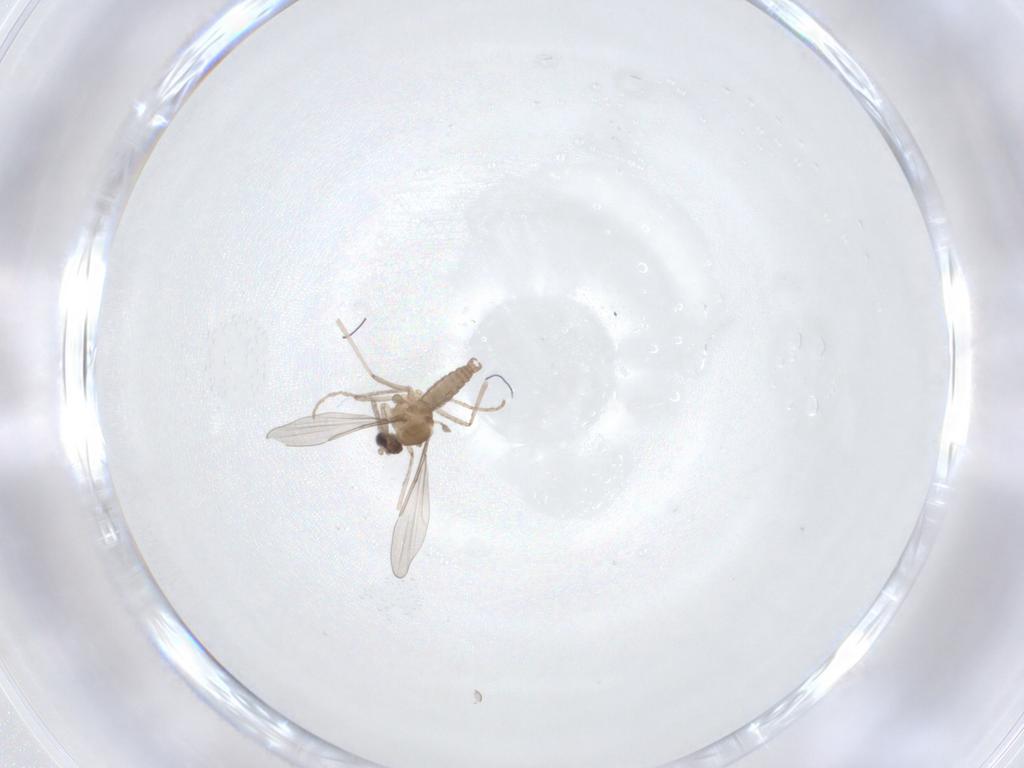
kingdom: Animalia
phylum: Arthropoda
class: Insecta
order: Diptera
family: Cecidomyiidae
